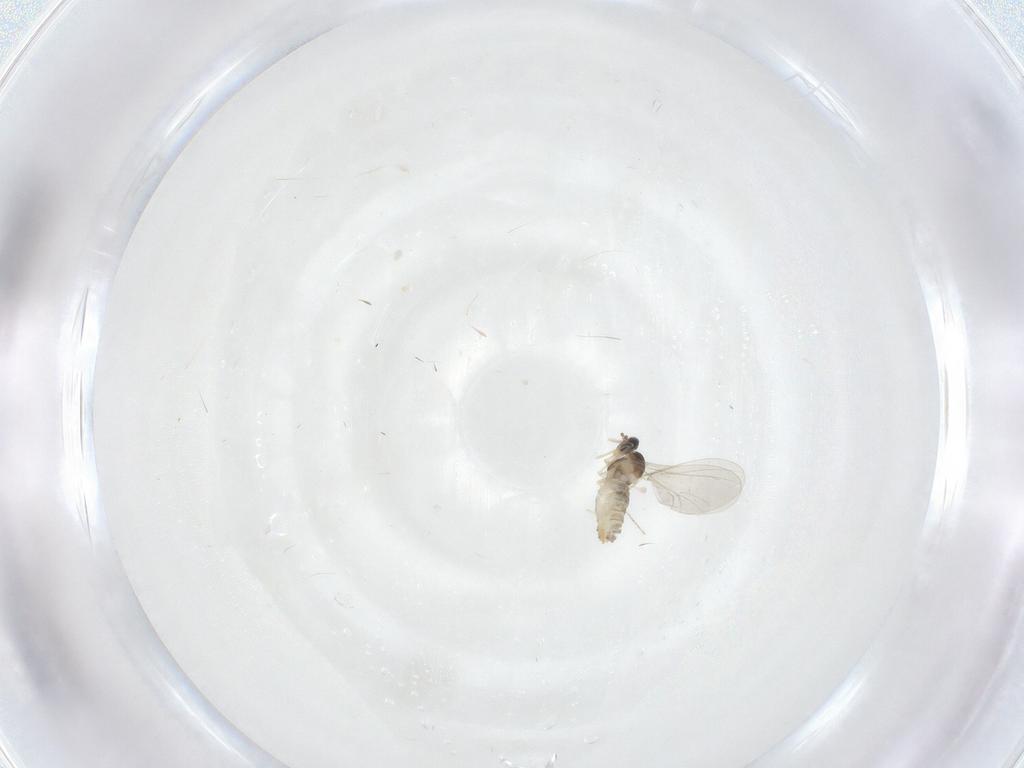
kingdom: Animalia
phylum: Arthropoda
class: Insecta
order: Diptera
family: Cecidomyiidae
